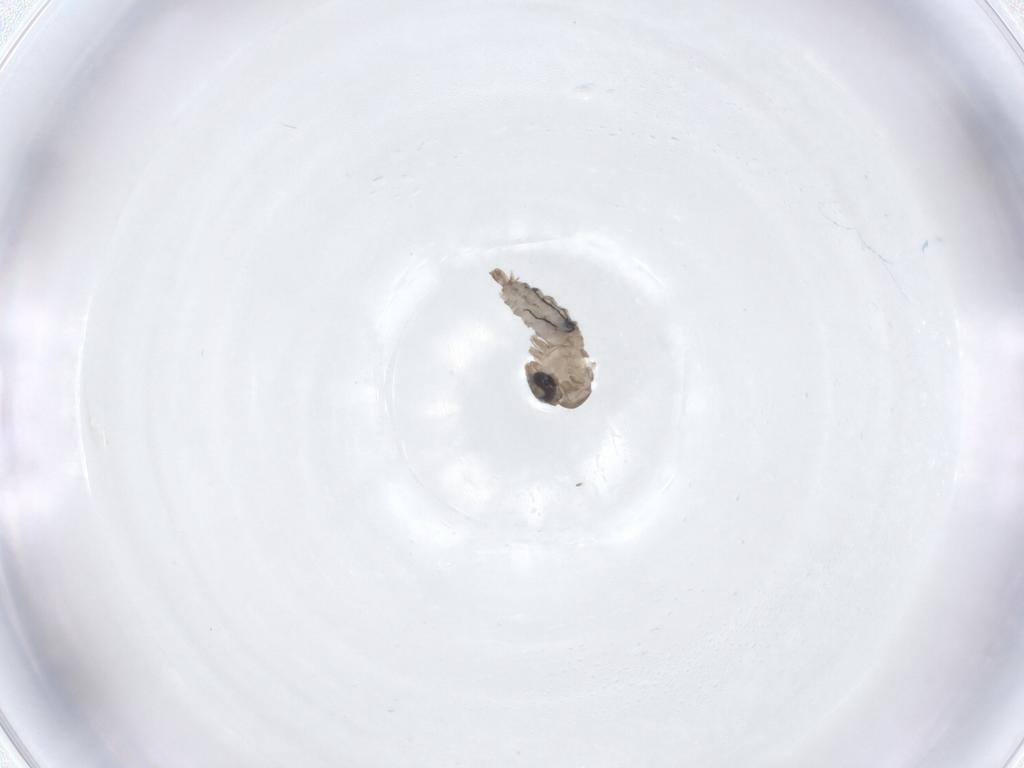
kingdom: Animalia
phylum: Arthropoda
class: Insecta
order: Diptera
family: Psychodidae
